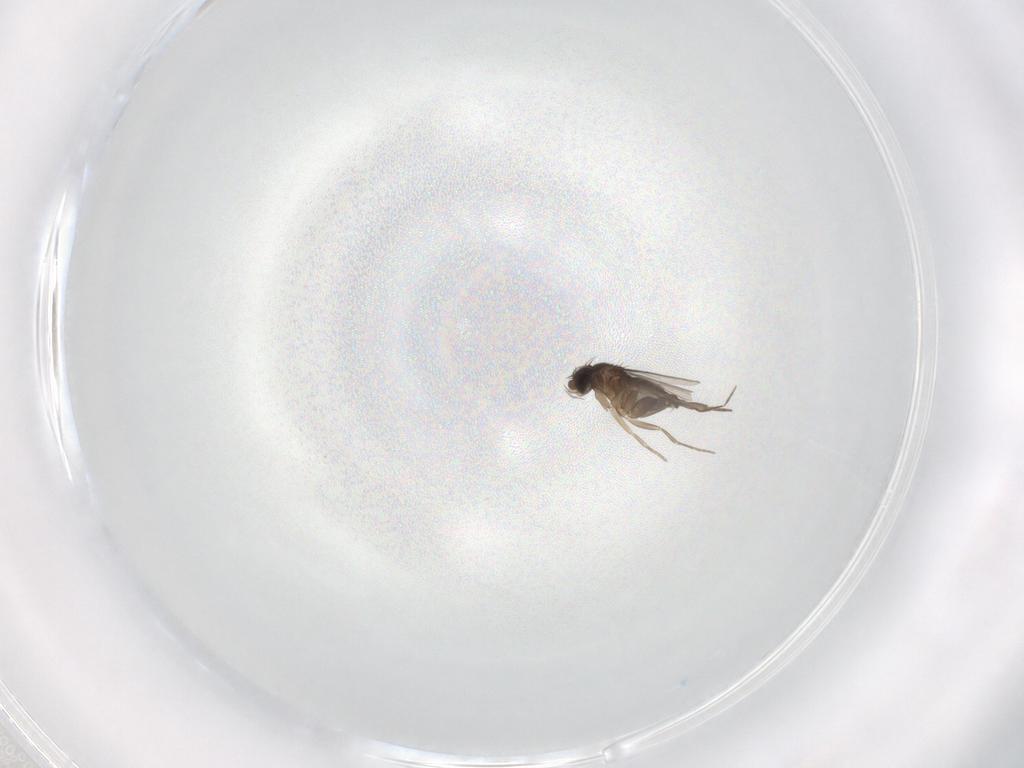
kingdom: Animalia
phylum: Arthropoda
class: Insecta
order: Diptera
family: Phoridae
